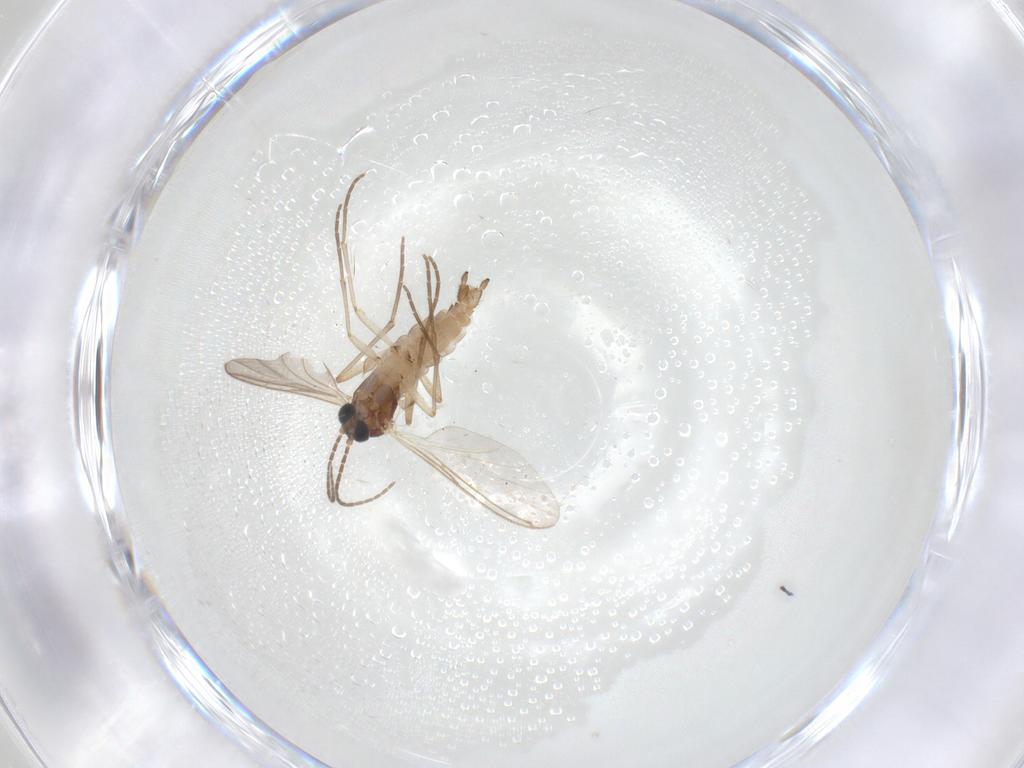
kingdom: Animalia
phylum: Arthropoda
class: Insecta
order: Diptera
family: Sciaridae
